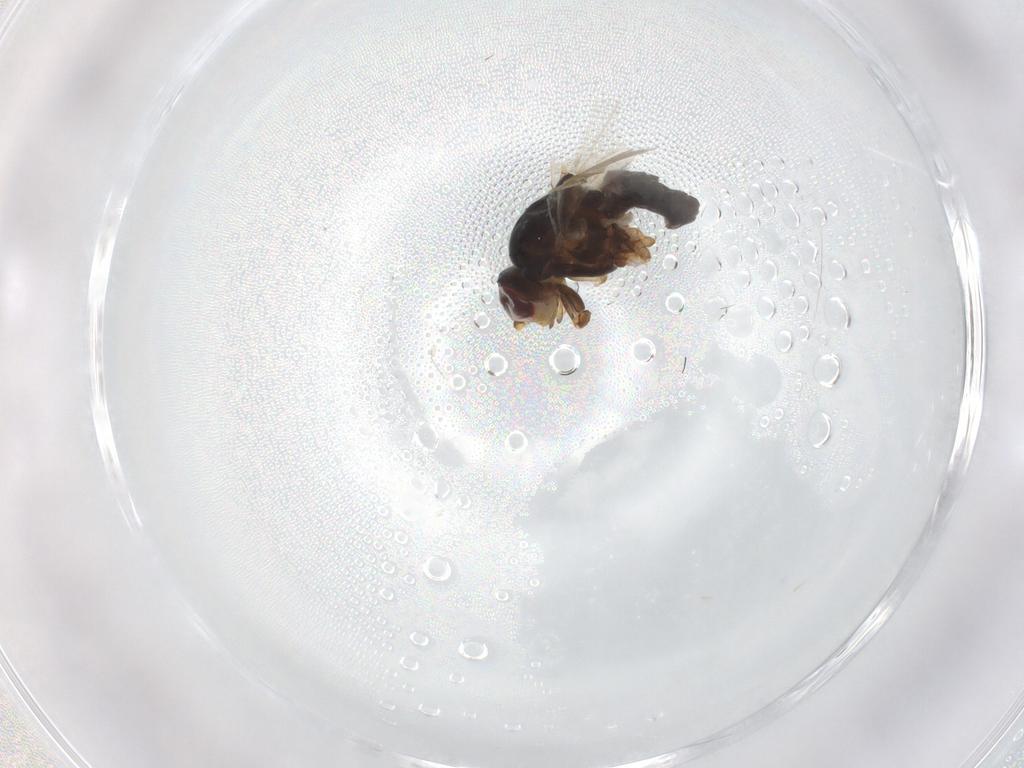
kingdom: Animalia
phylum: Arthropoda
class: Insecta
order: Diptera
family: Heleomyzidae
